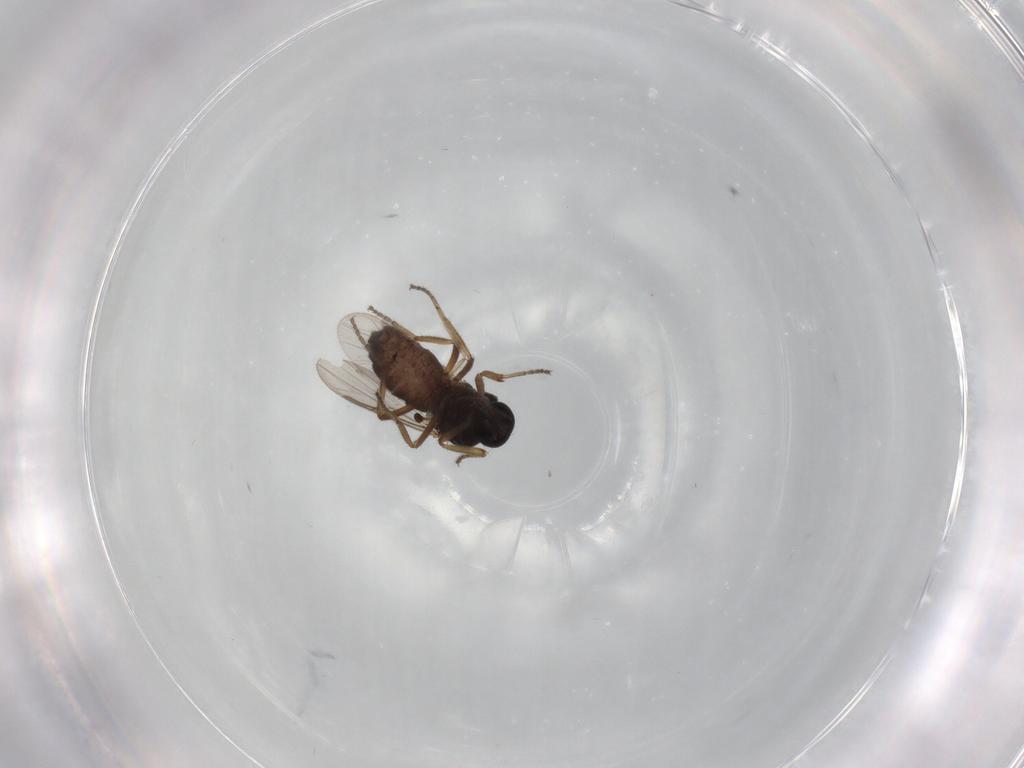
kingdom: Animalia
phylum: Arthropoda
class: Insecta
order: Diptera
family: Ceratopogonidae
